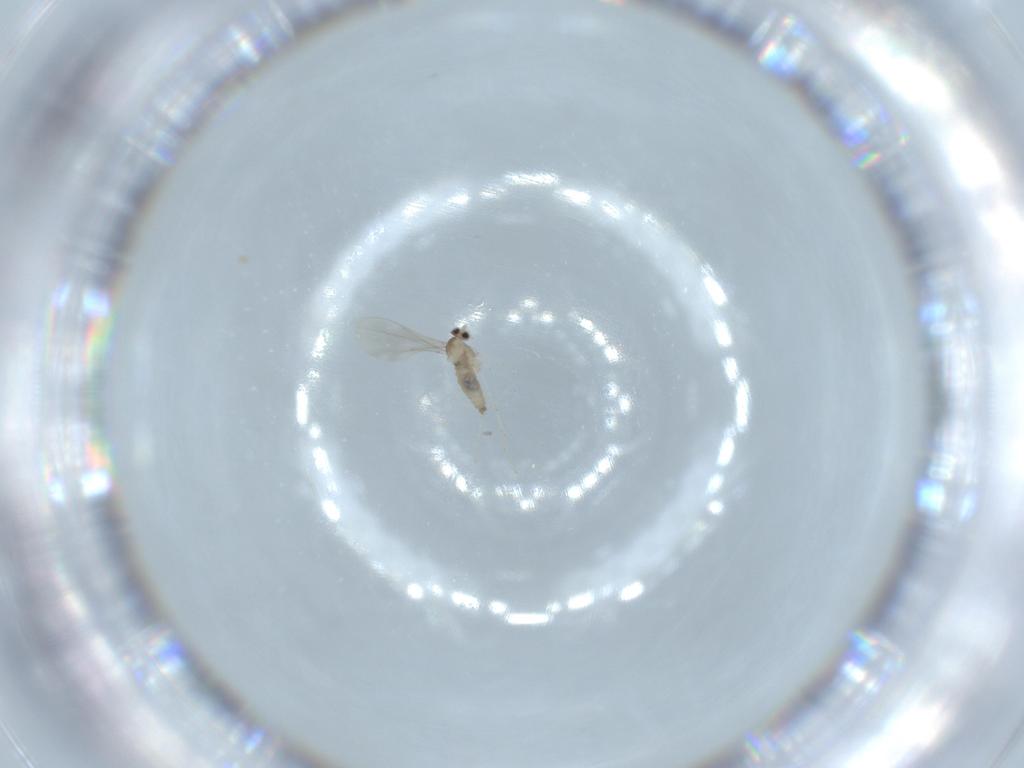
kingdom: Animalia
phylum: Arthropoda
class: Insecta
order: Diptera
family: Cecidomyiidae
